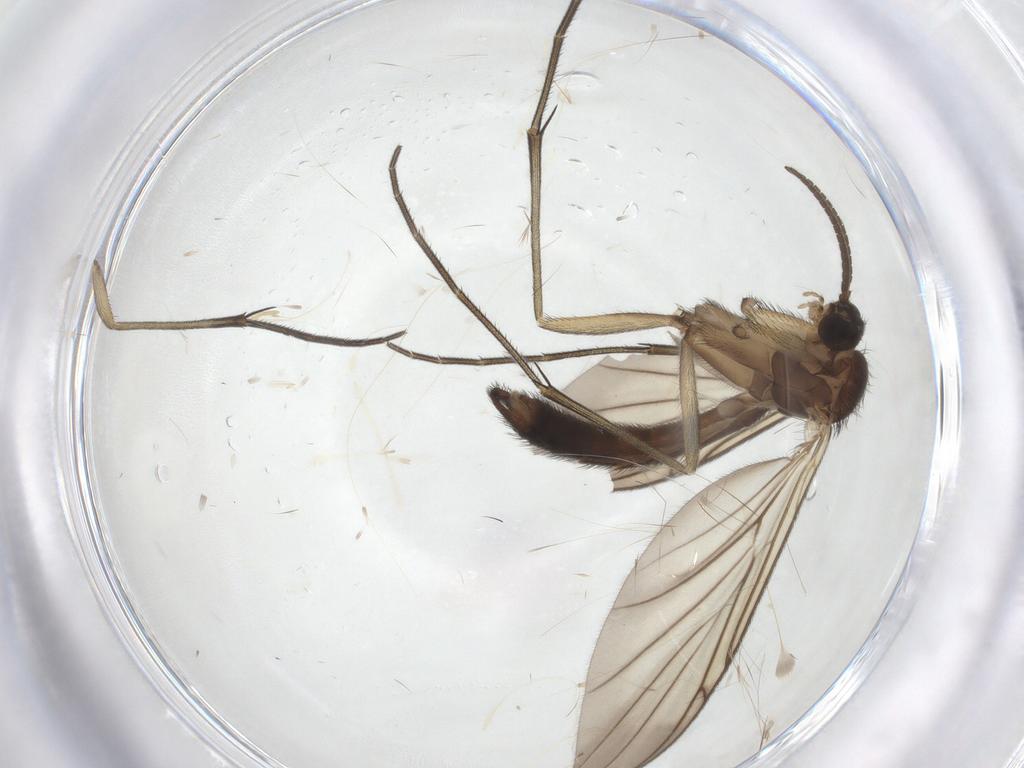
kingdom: Animalia
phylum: Arthropoda
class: Insecta
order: Diptera
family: Keroplatidae
